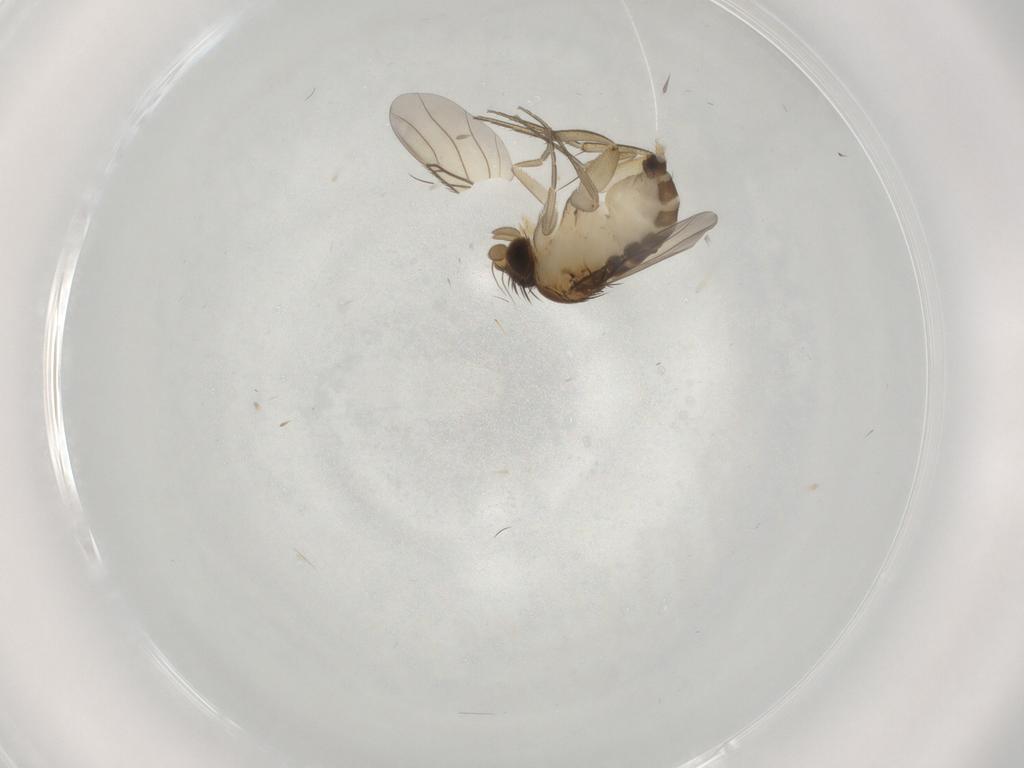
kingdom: Animalia
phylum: Arthropoda
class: Insecta
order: Diptera
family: Phoridae
